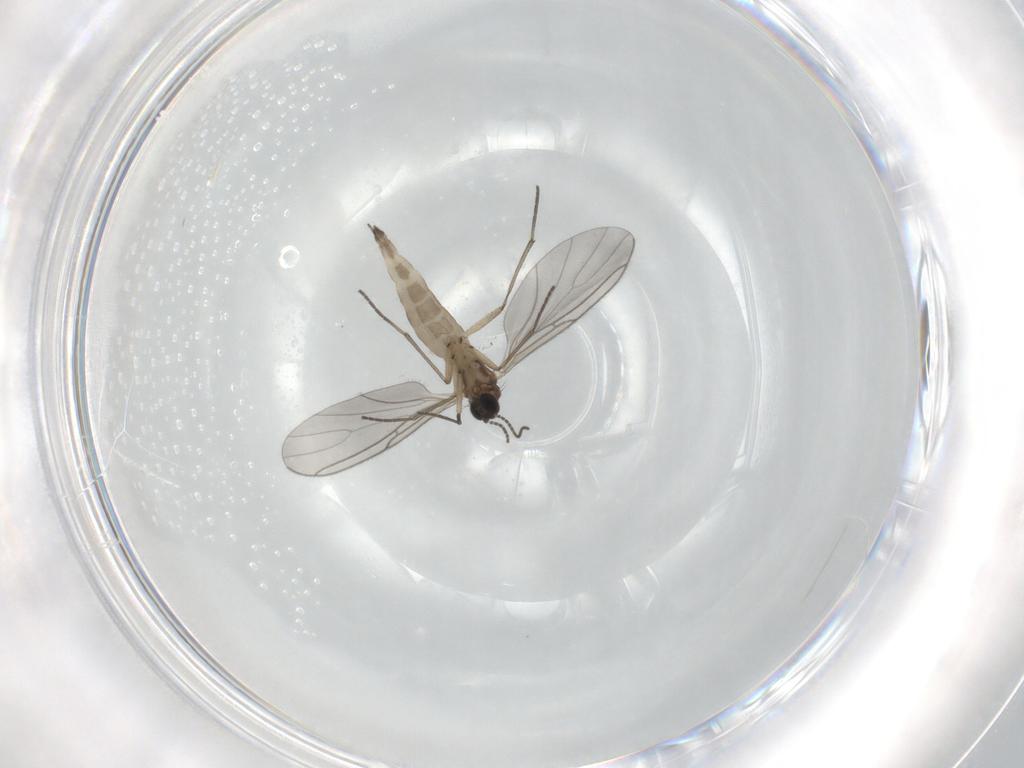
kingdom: Animalia
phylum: Arthropoda
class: Insecta
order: Diptera
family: Sciaridae
